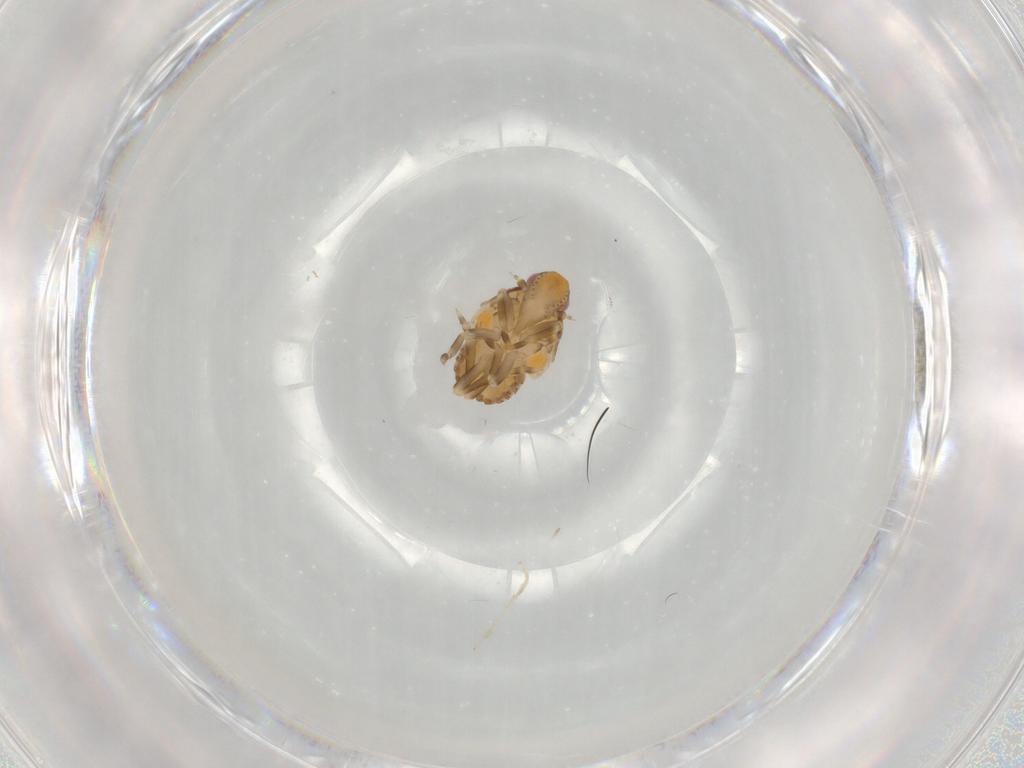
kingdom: Animalia
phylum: Arthropoda
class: Insecta
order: Hemiptera
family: Flatidae
